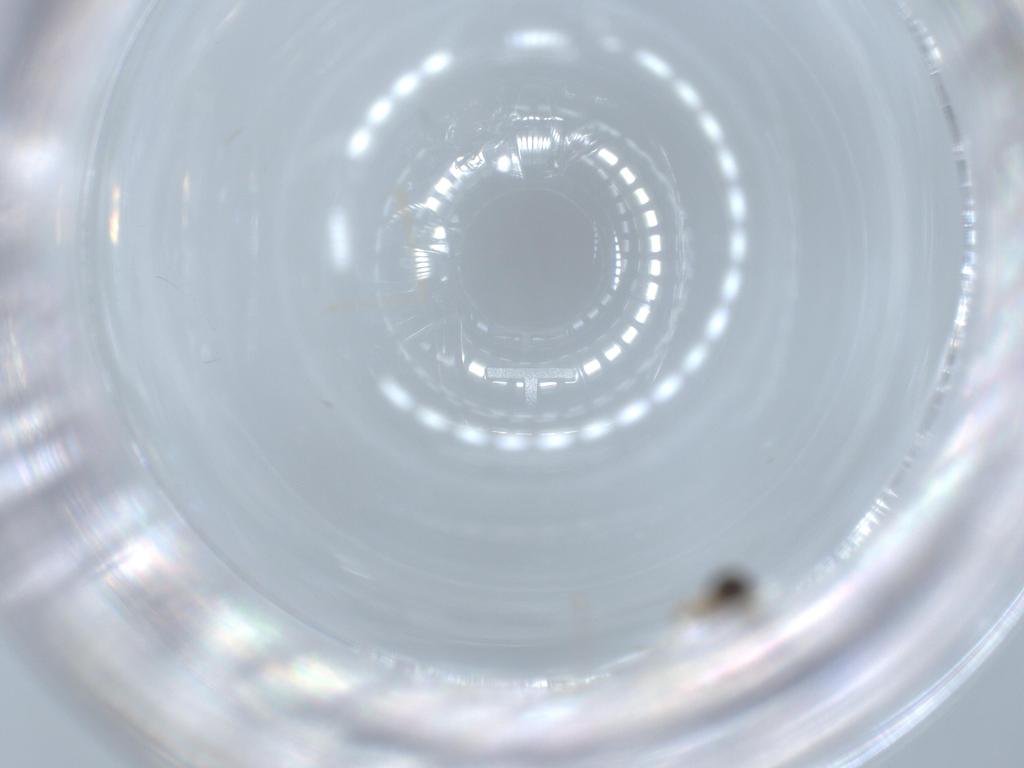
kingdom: Animalia
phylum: Arthropoda
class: Insecta
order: Diptera
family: Cecidomyiidae
